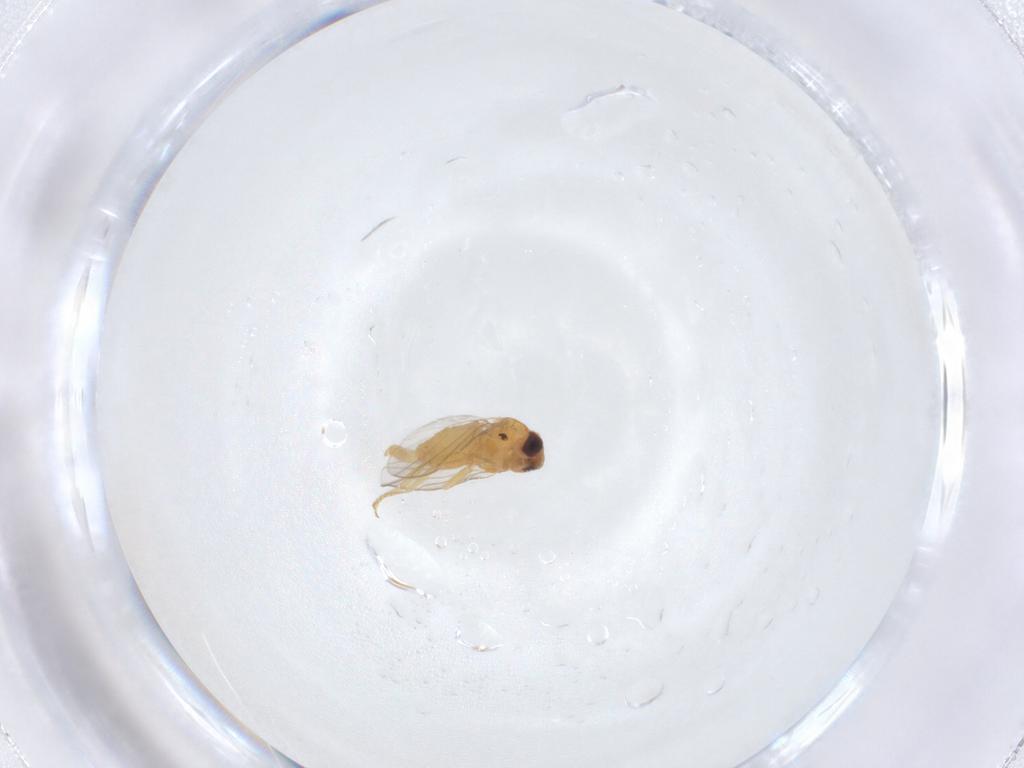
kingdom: Animalia
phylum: Arthropoda
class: Insecta
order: Diptera
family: Chloropidae
